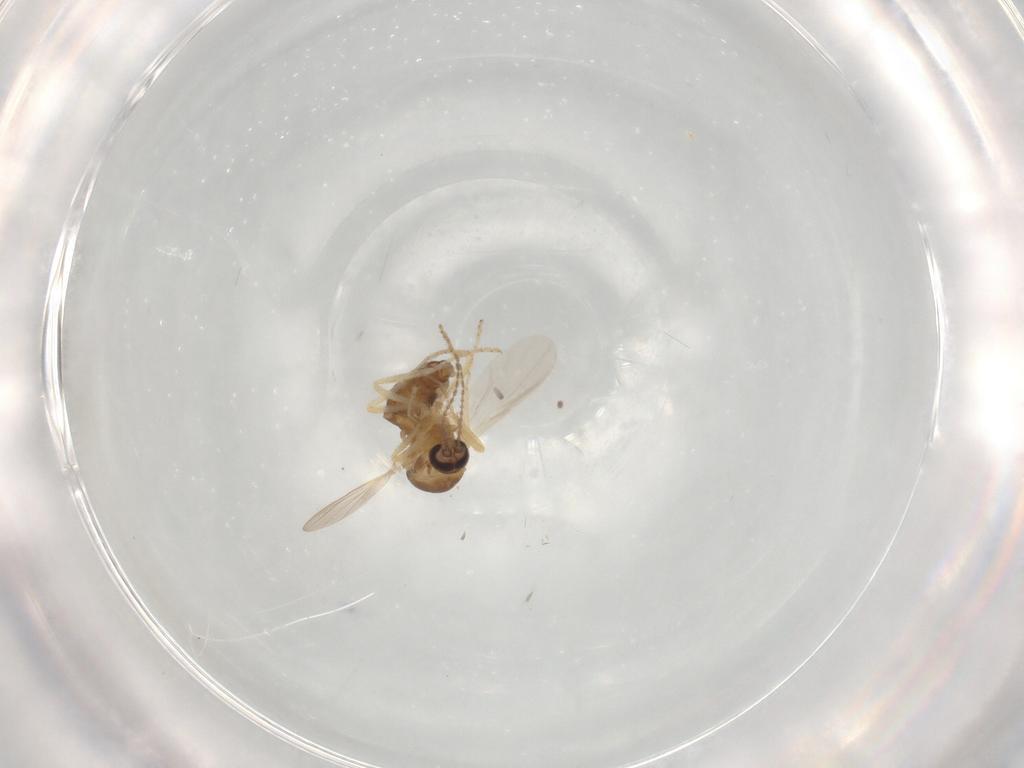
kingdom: Animalia
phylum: Arthropoda
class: Insecta
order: Diptera
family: Ceratopogonidae
